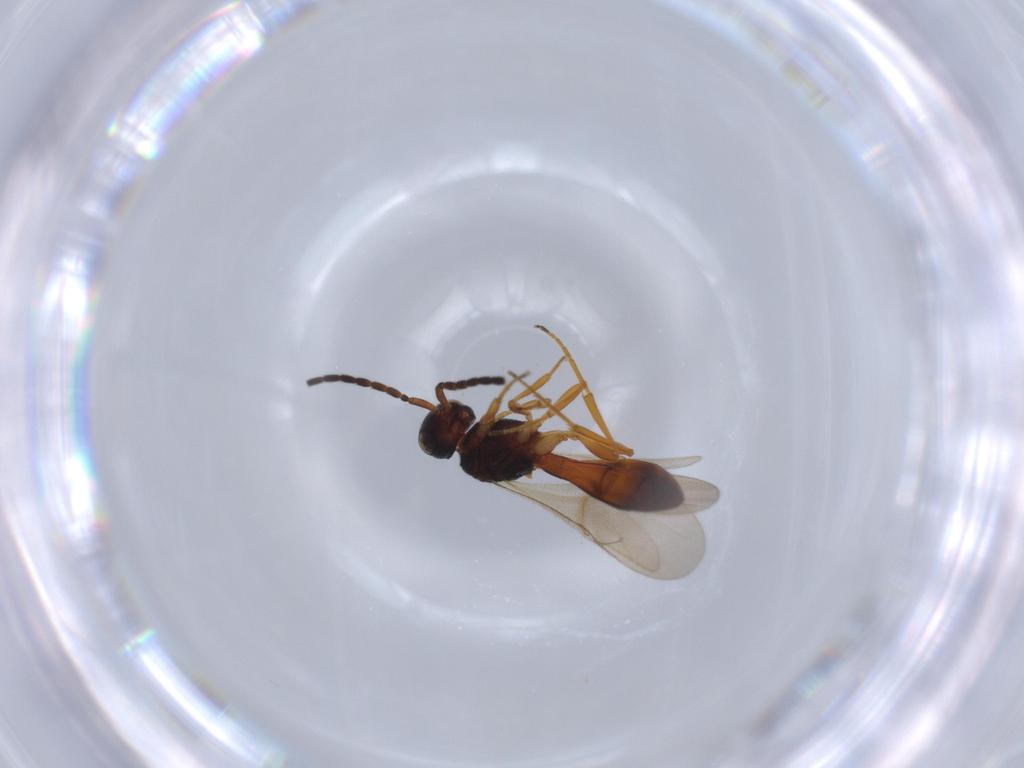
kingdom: Animalia
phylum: Arthropoda
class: Insecta
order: Hymenoptera
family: Scelionidae
